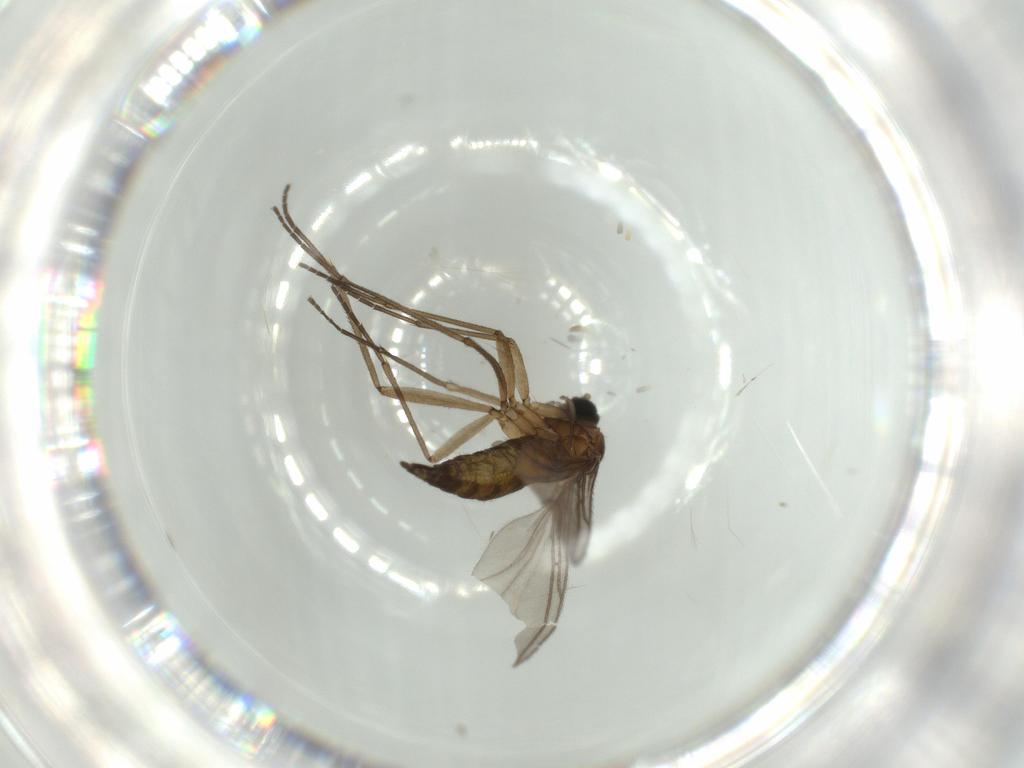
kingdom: Animalia
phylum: Arthropoda
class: Insecta
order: Diptera
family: Sciaridae
